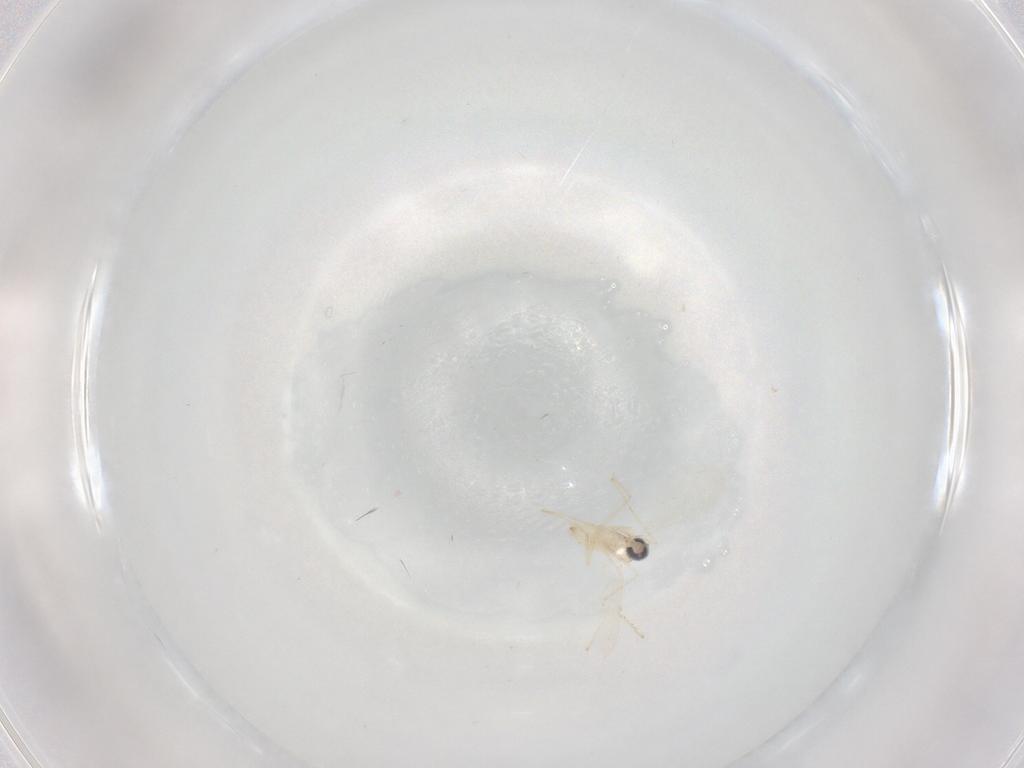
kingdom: Animalia
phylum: Arthropoda
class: Insecta
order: Diptera
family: Cecidomyiidae
